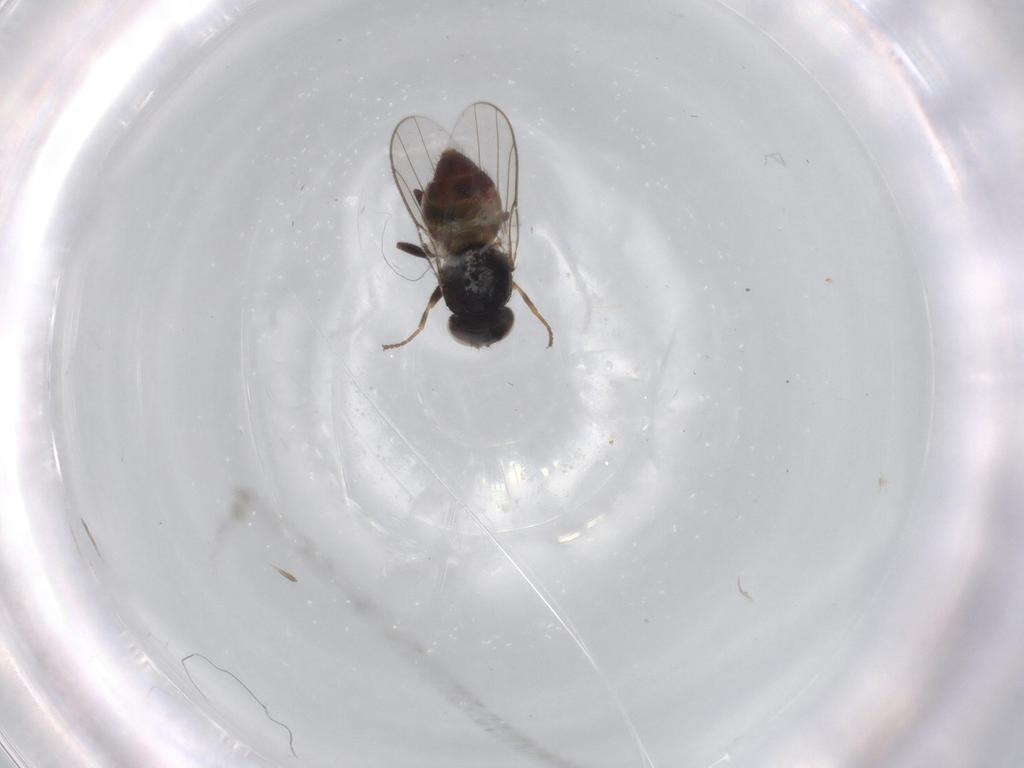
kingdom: Animalia
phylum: Arthropoda
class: Insecta
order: Diptera
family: Chloropidae
